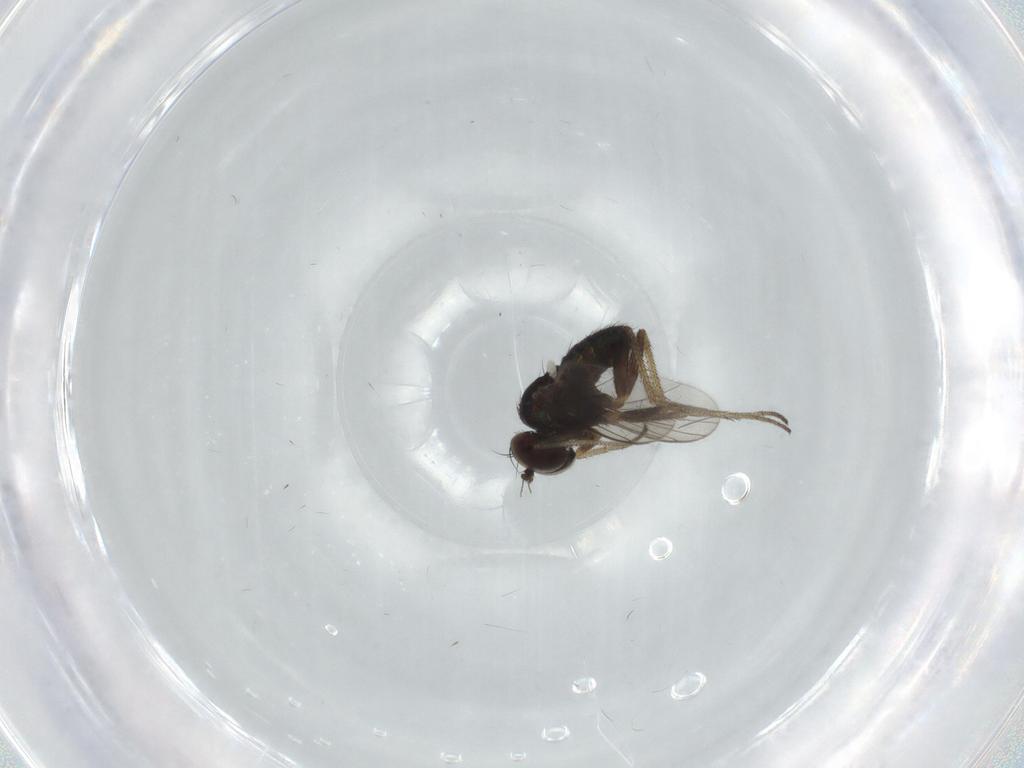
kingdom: Animalia
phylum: Arthropoda
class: Insecta
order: Diptera
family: Dolichopodidae
